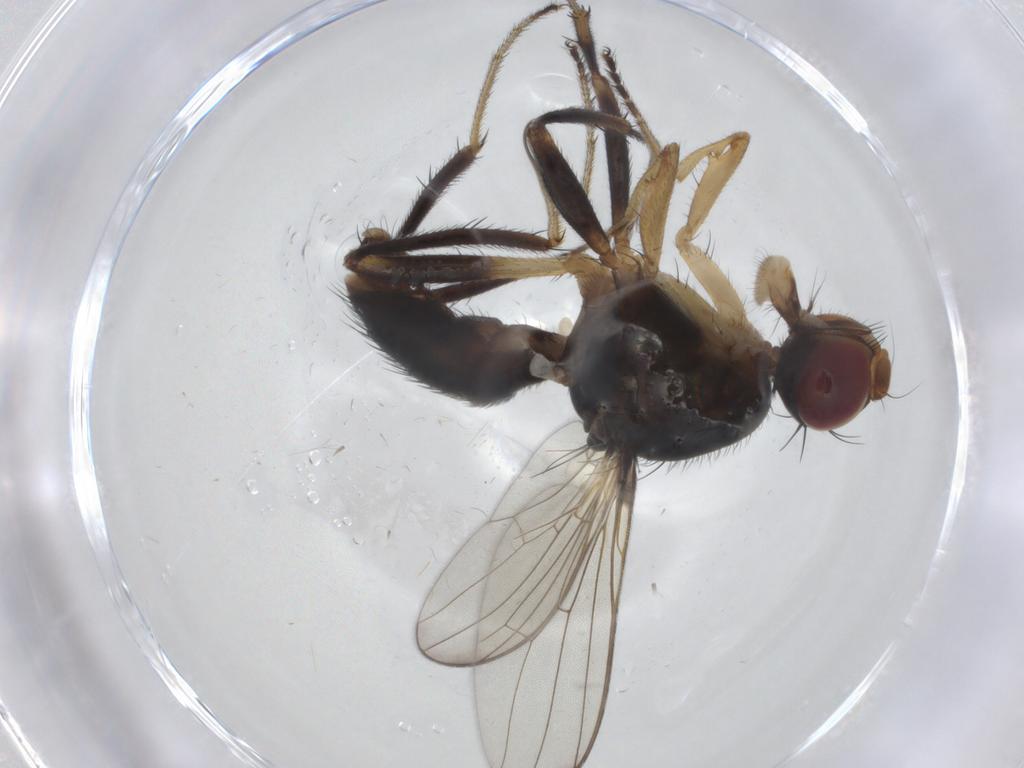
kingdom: Animalia
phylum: Arthropoda
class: Insecta
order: Diptera
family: Sepsidae
